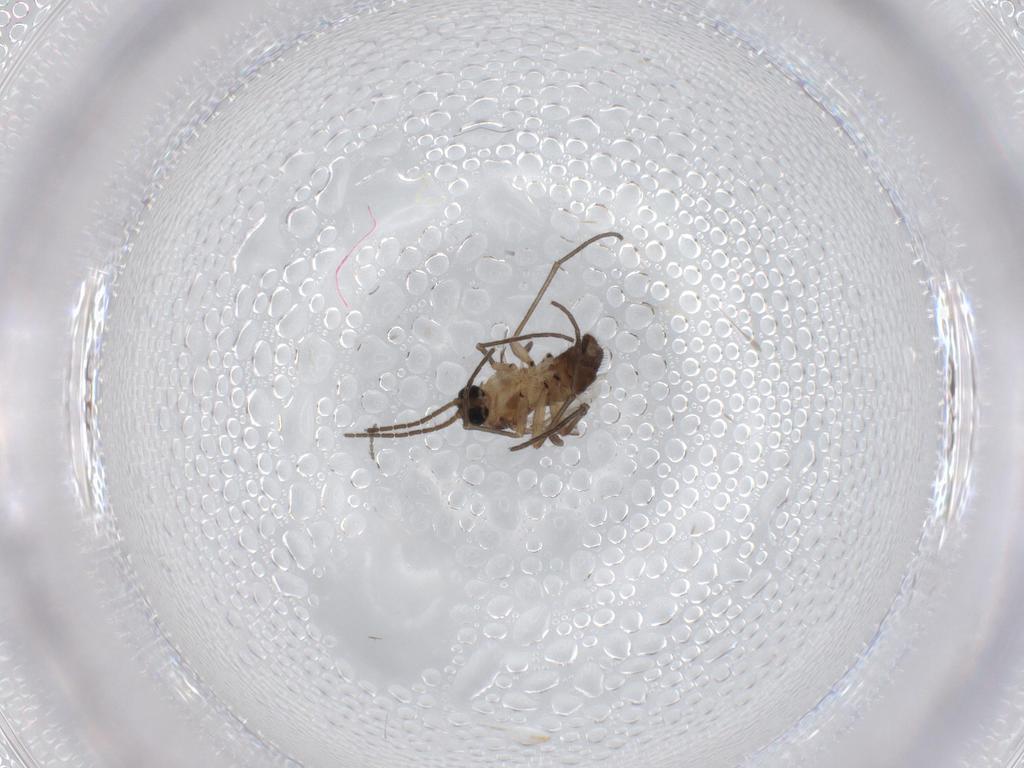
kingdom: Animalia
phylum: Arthropoda
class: Insecta
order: Diptera
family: Sciaridae
